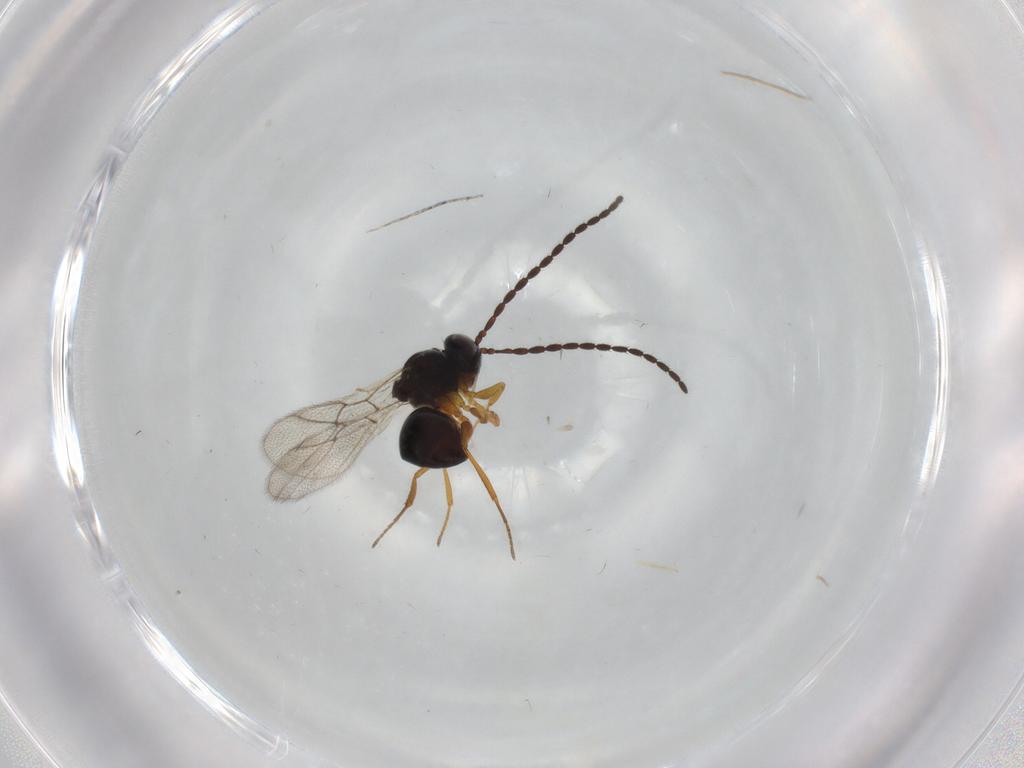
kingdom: Animalia
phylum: Arthropoda
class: Insecta
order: Hymenoptera
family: Figitidae
